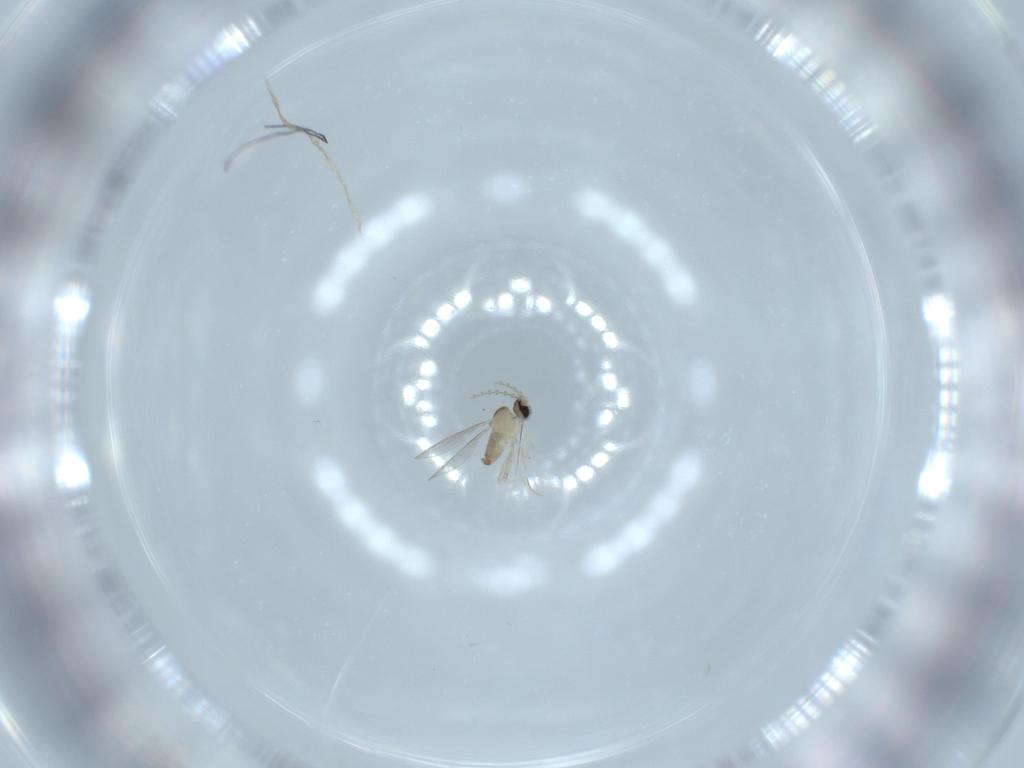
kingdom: Animalia
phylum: Arthropoda
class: Insecta
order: Diptera
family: Cecidomyiidae
